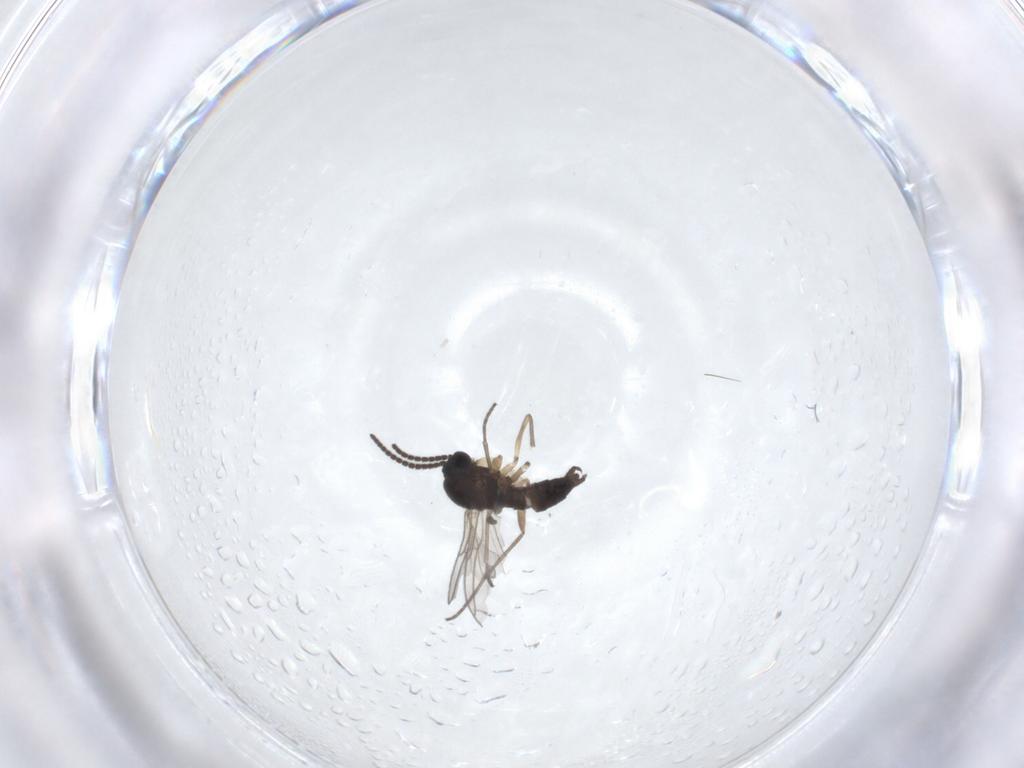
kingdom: Animalia
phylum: Arthropoda
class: Insecta
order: Diptera
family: Sciaridae
